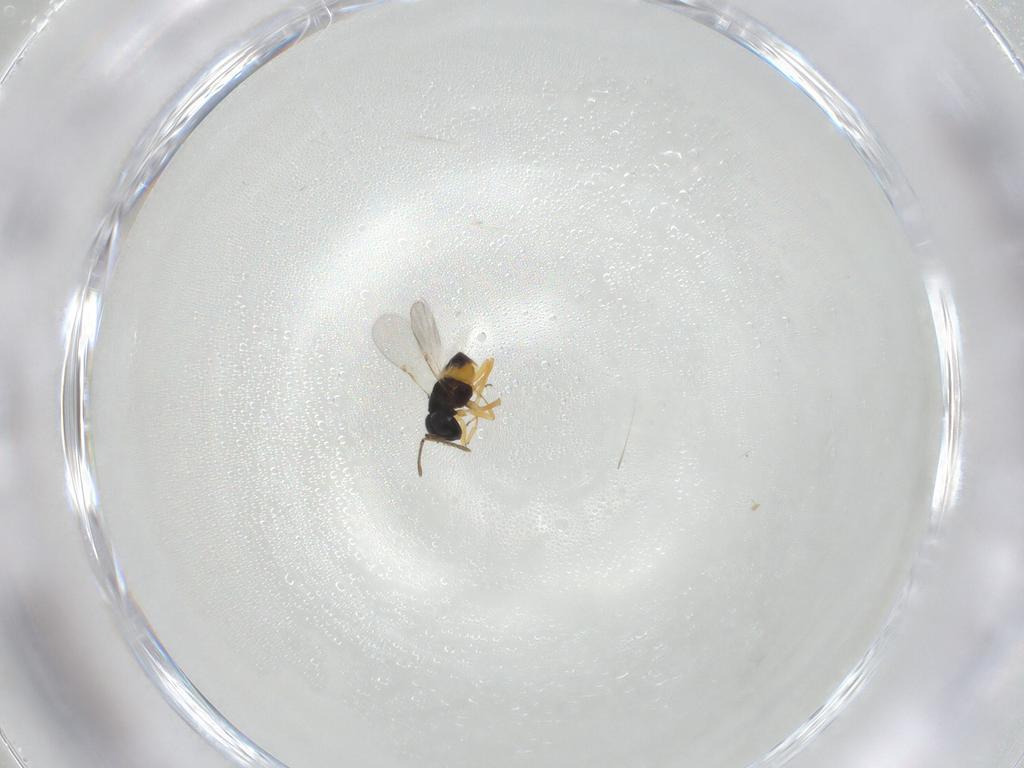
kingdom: Animalia
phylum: Arthropoda
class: Insecta
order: Hymenoptera
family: Encyrtidae
